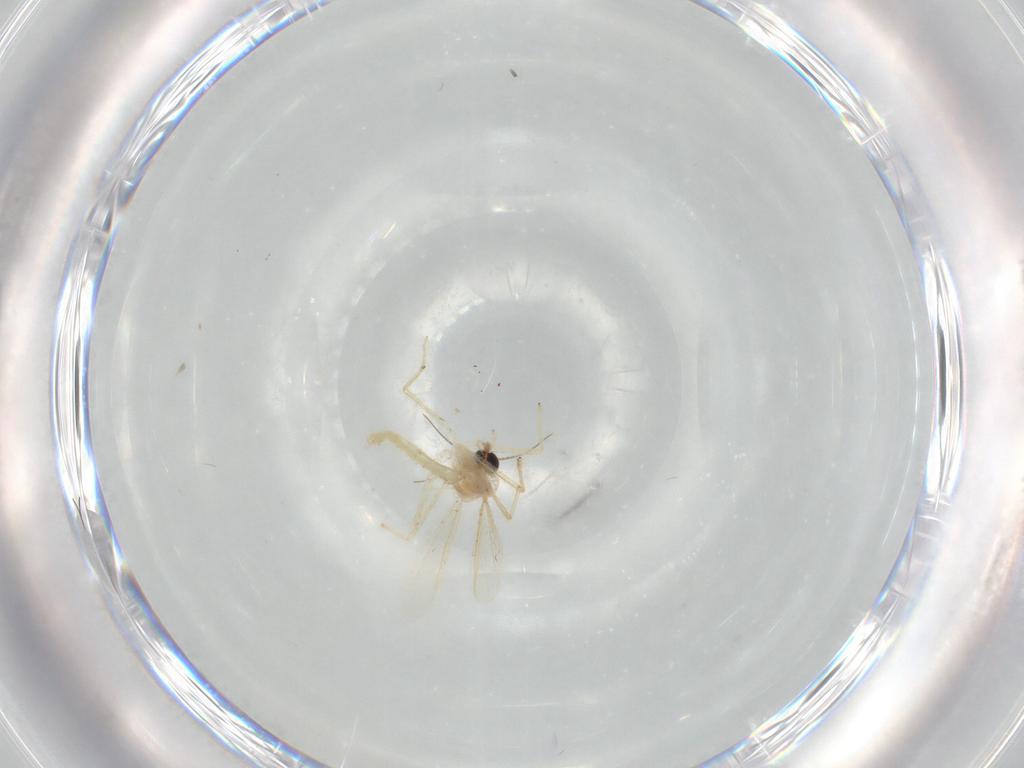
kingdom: Animalia
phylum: Arthropoda
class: Insecta
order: Diptera
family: Chironomidae
